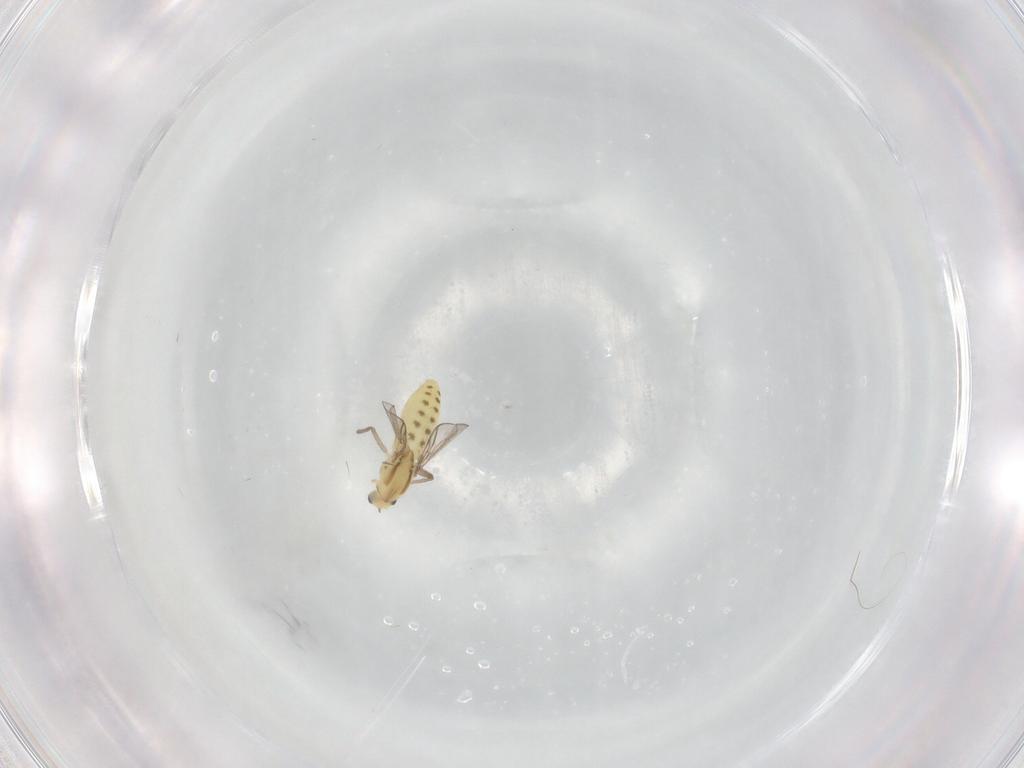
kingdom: Animalia
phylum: Arthropoda
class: Insecta
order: Diptera
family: Chironomidae
